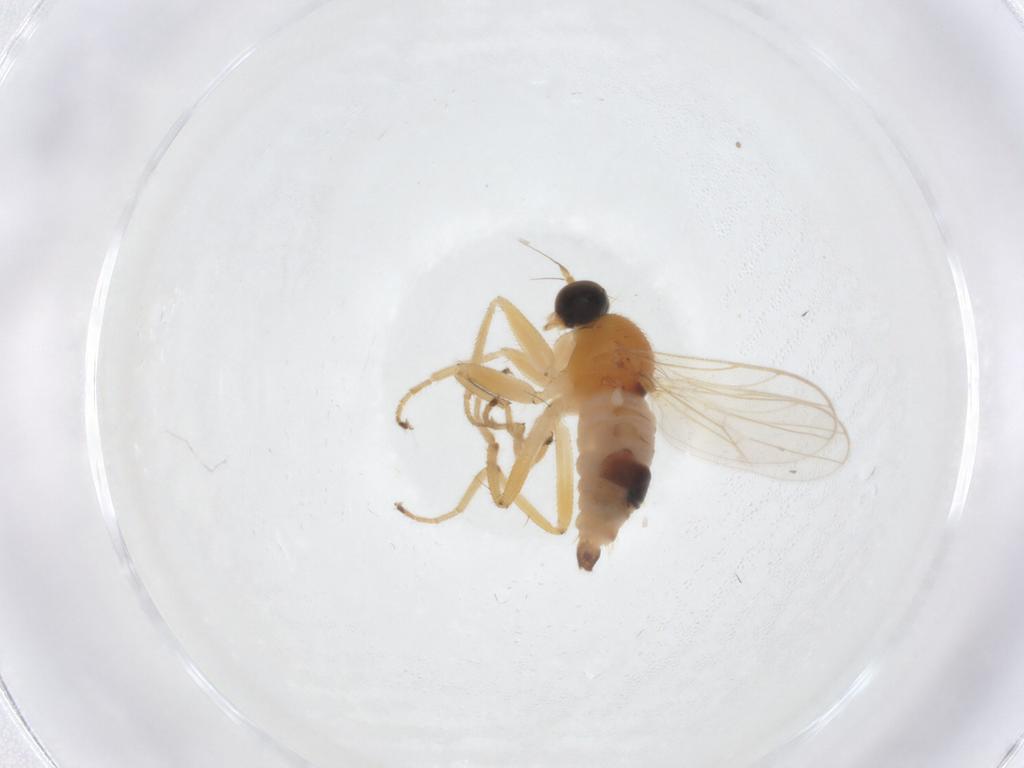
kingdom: Animalia
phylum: Arthropoda
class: Insecta
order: Diptera
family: Hybotidae
